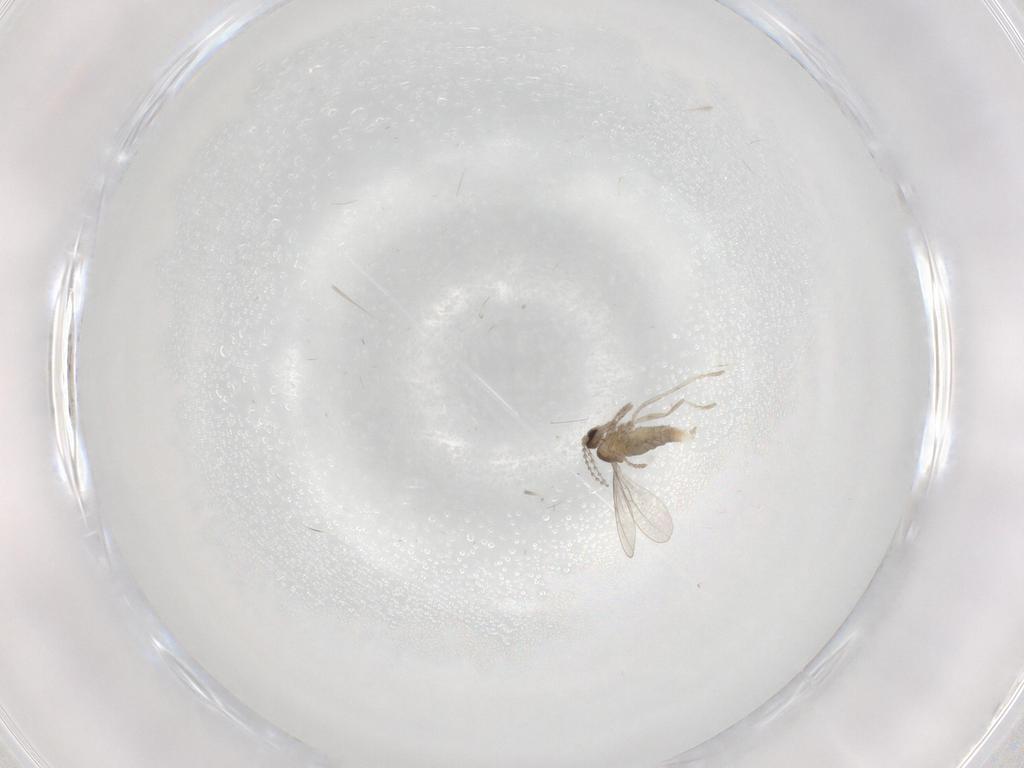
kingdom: Animalia
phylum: Arthropoda
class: Insecta
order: Diptera
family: Cecidomyiidae
